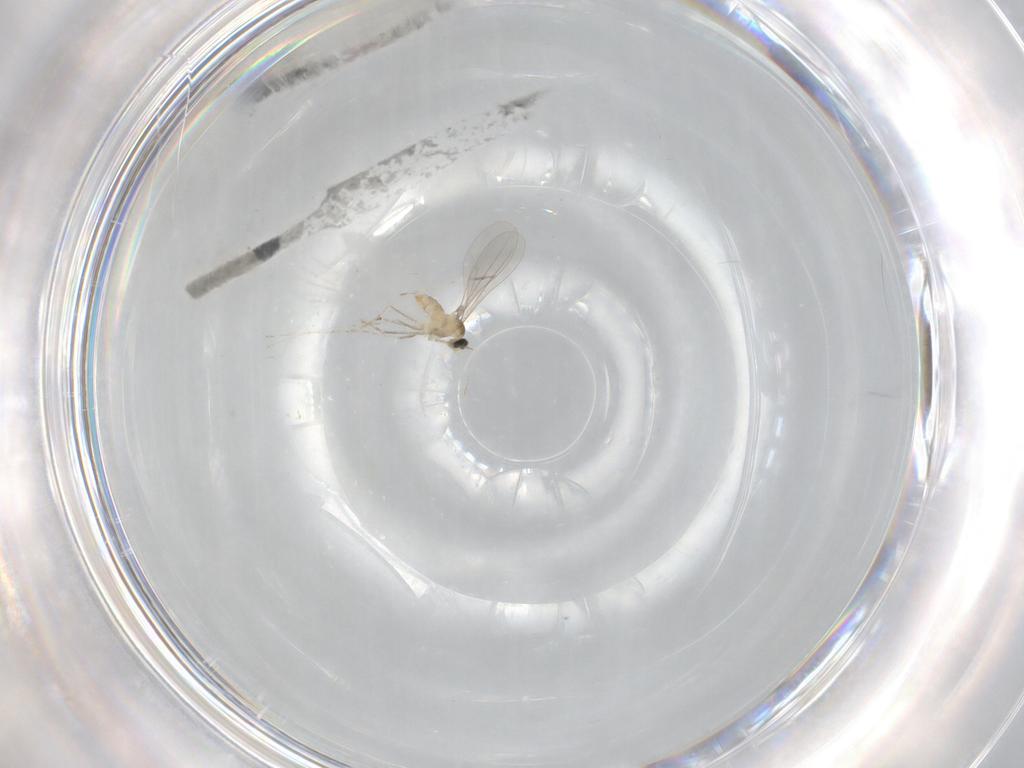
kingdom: Animalia
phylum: Arthropoda
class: Insecta
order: Diptera
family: Cecidomyiidae
